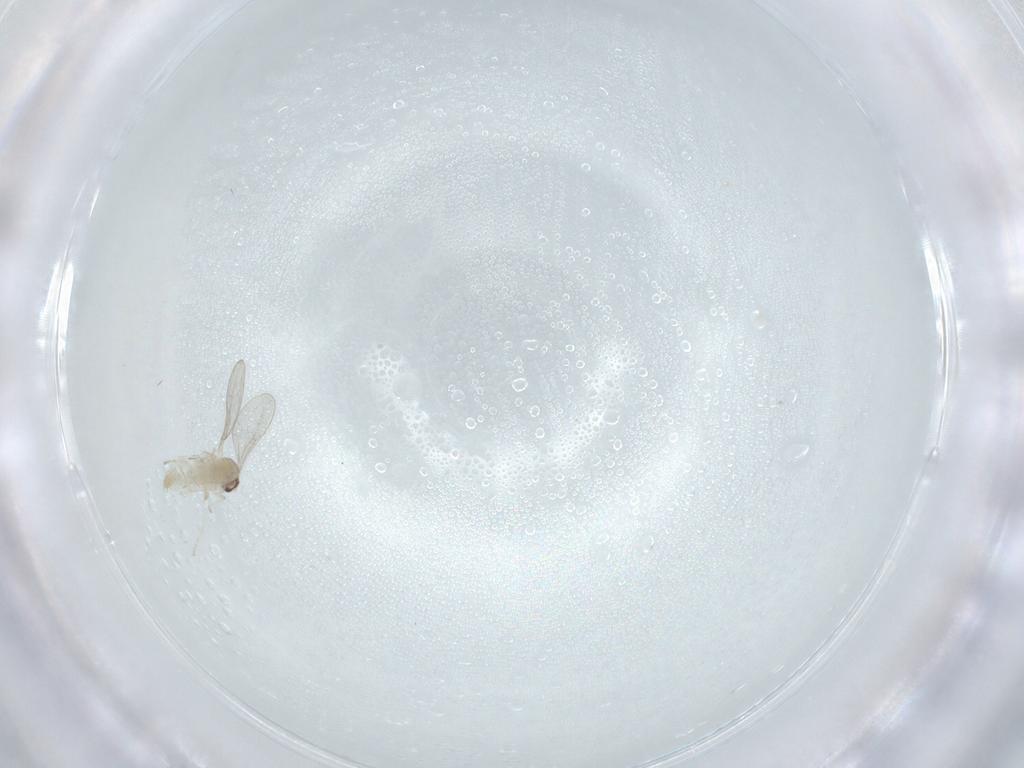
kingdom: Animalia
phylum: Arthropoda
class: Insecta
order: Diptera
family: Cecidomyiidae
